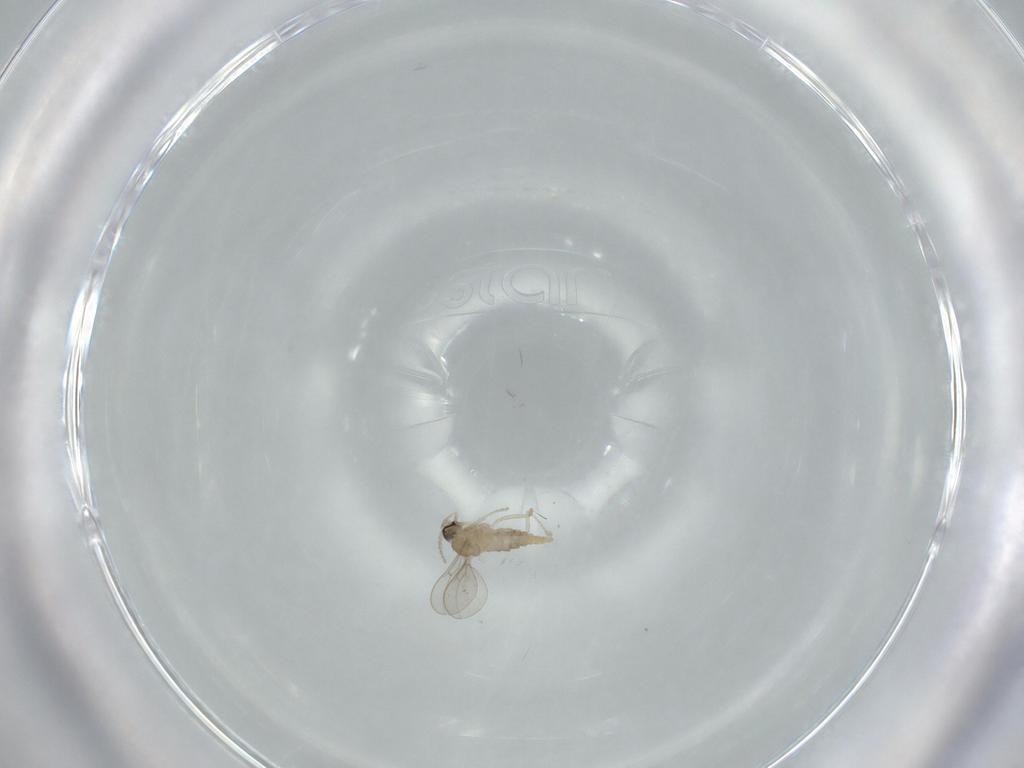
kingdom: Animalia
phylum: Arthropoda
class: Insecta
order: Diptera
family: Cecidomyiidae
